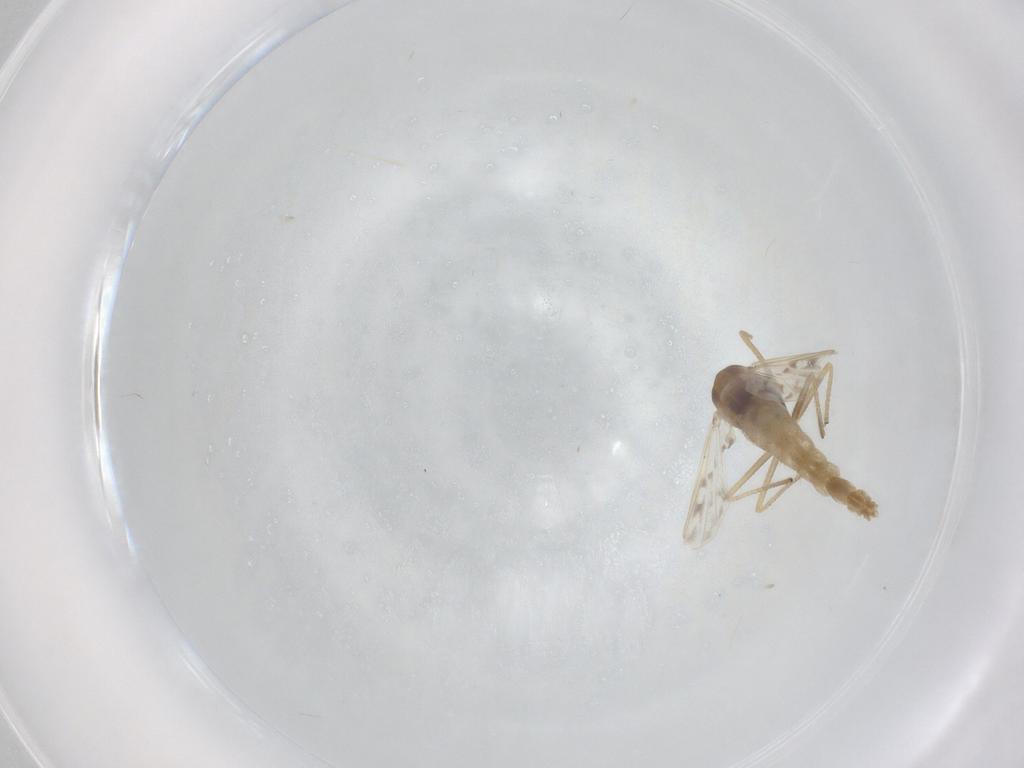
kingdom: Animalia
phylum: Arthropoda
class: Insecta
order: Diptera
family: Chironomidae
